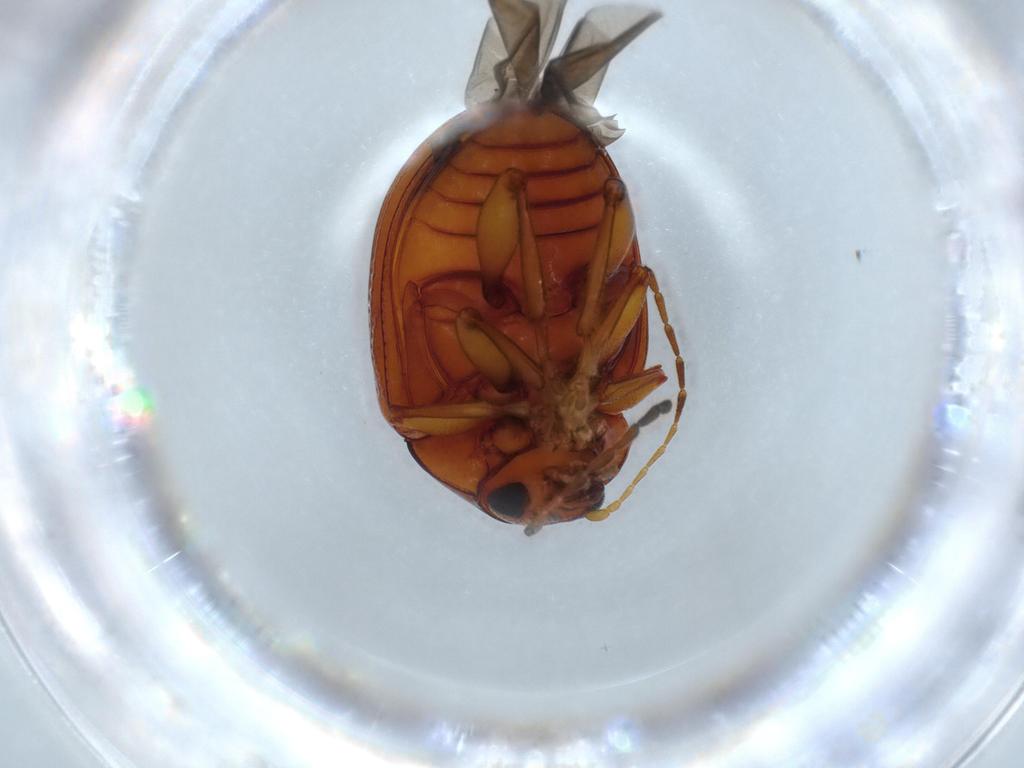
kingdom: Animalia
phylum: Arthropoda
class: Insecta
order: Coleoptera
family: Chrysomelidae
